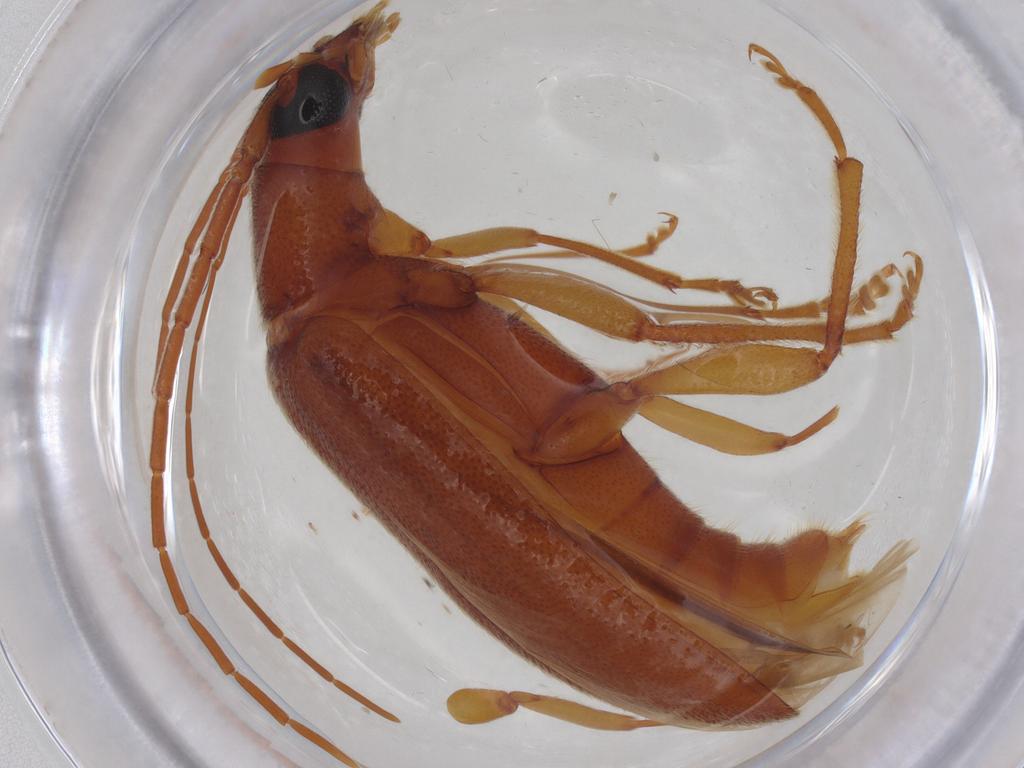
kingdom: Animalia
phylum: Arthropoda
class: Insecta
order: Coleoptera
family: Oedemeridae
